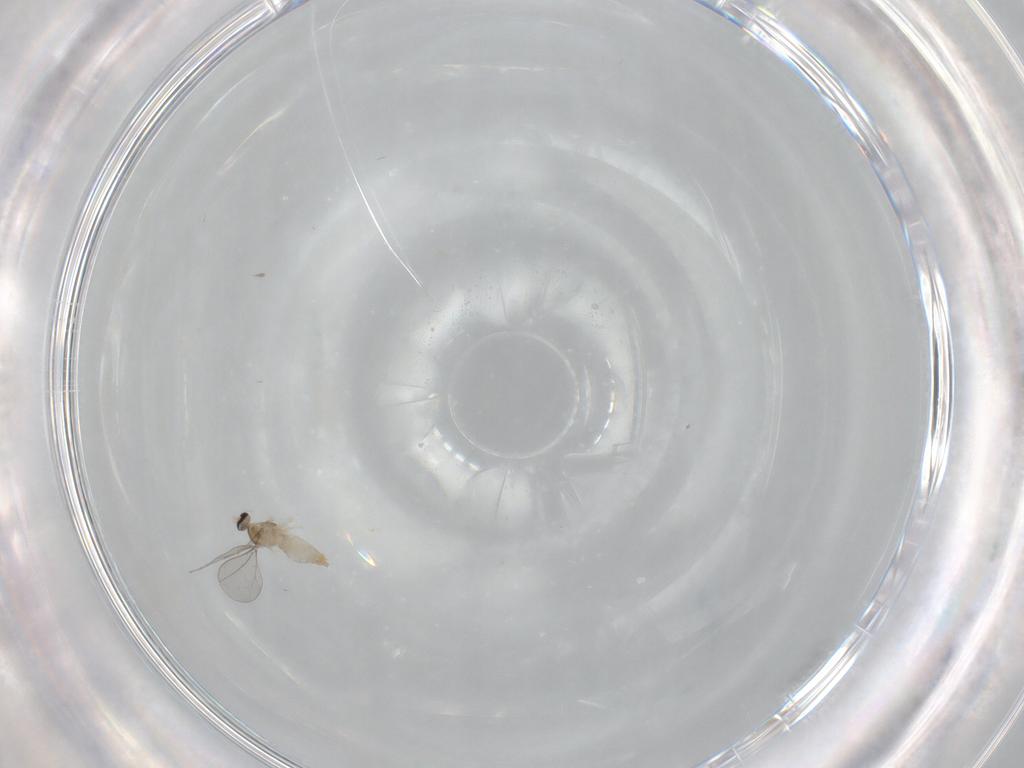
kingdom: Animalia
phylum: Arthropoda
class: Insecta
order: Diptera
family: Cecidomyiidae
